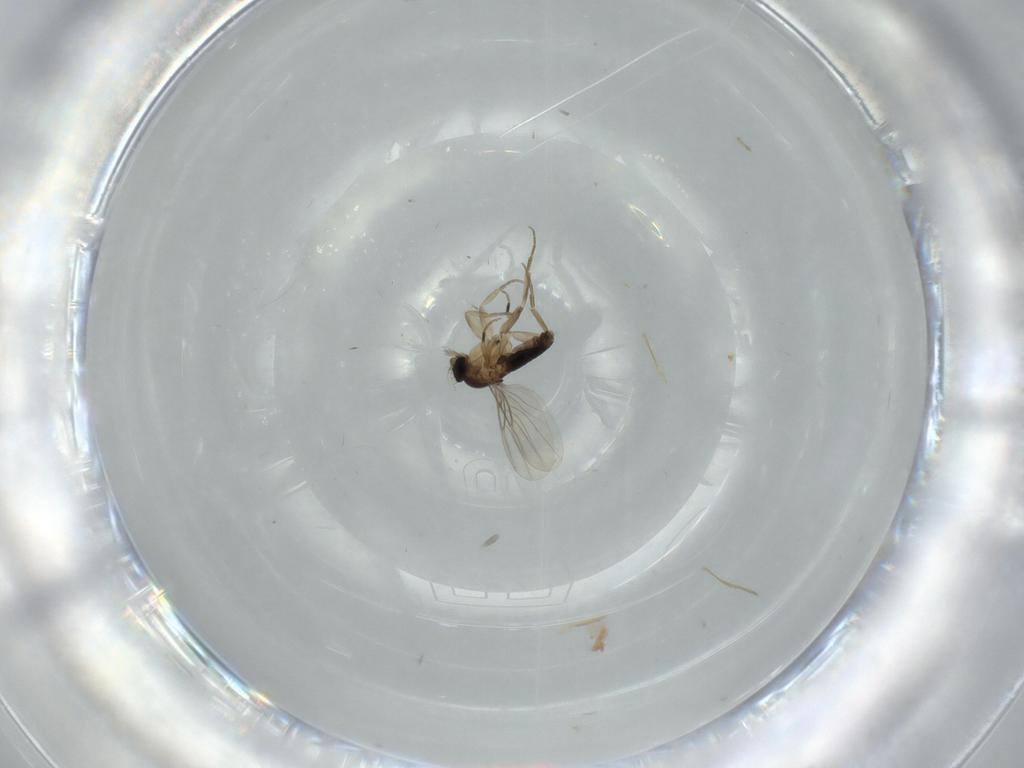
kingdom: Animalia
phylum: Arthropoda
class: Insecta
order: Diptera
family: Phoridae
